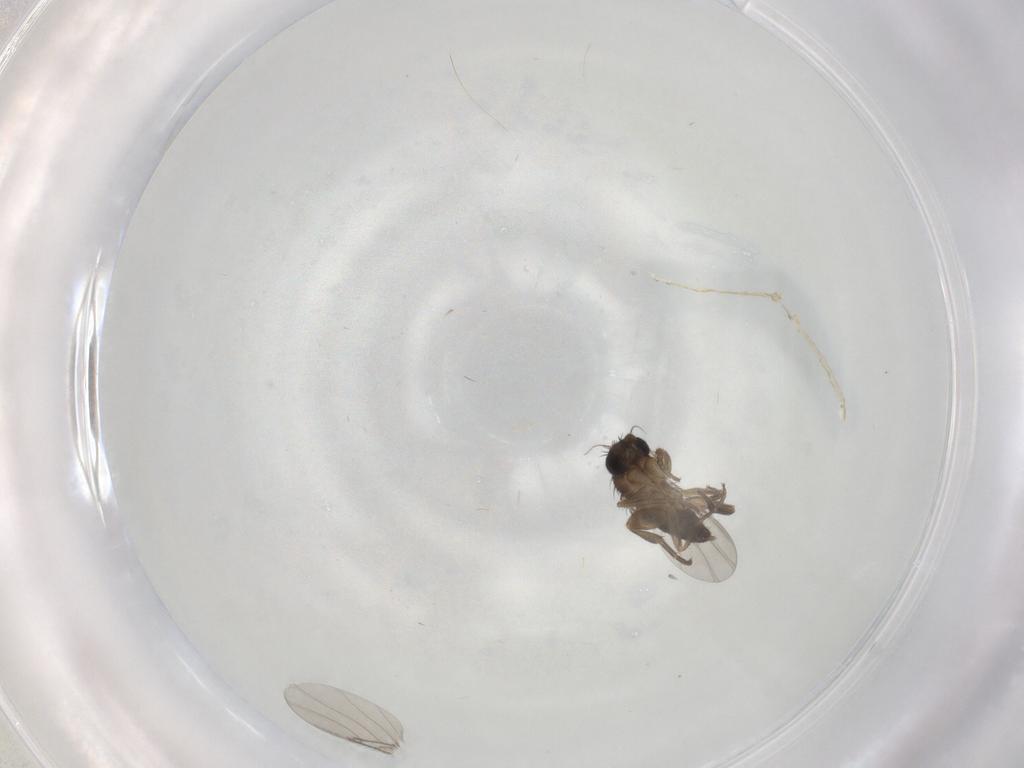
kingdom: Animalia
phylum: Arthropoda
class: Insecta
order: Diptera
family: Phoridae
